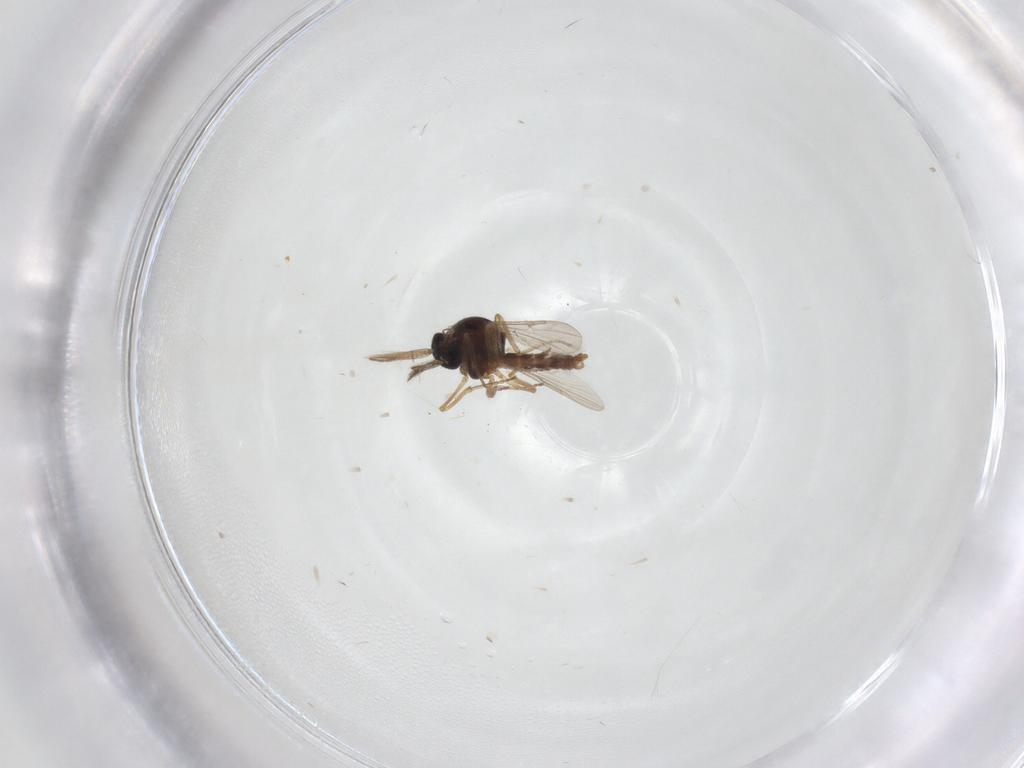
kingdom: Animalia
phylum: Arthropoda
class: Insecta
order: Diptera
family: Ceratopogonidae
